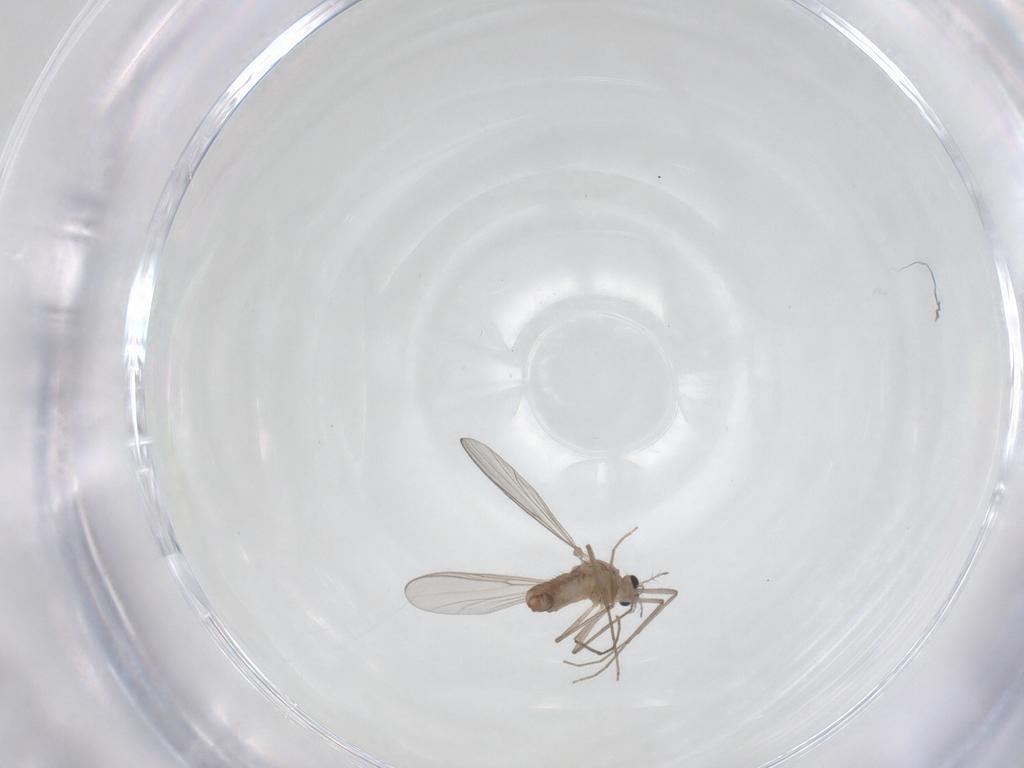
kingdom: Animalia
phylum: Arthropoda
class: Insecta
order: Diptera
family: Chironomidae
